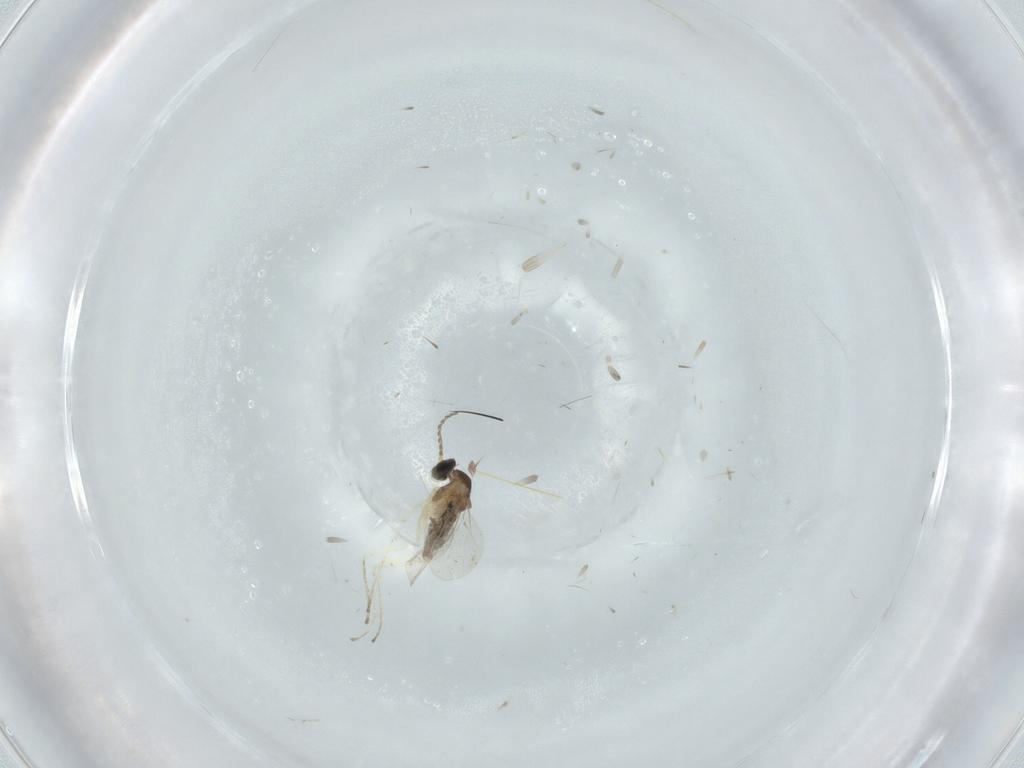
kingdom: Animalia
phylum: Arthropoda
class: Insecta
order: Diptera
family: Cecidomyiidae
